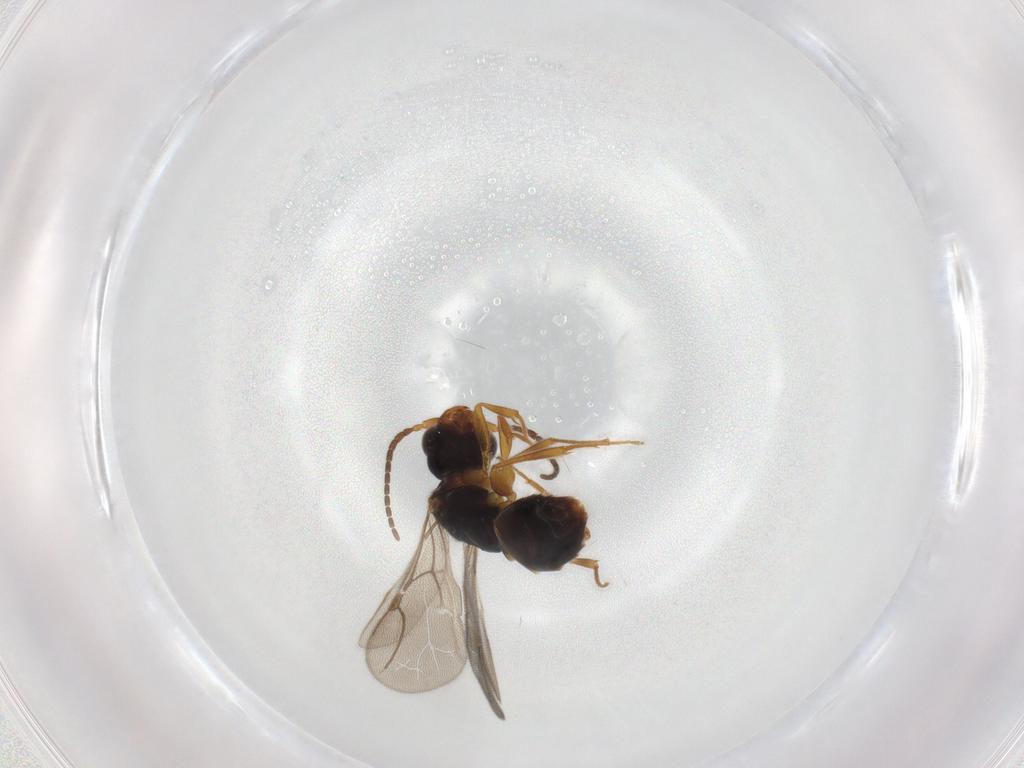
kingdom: Animalia
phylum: Arthropoda
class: Insecta
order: Hymenoptera
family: Bethylidae
